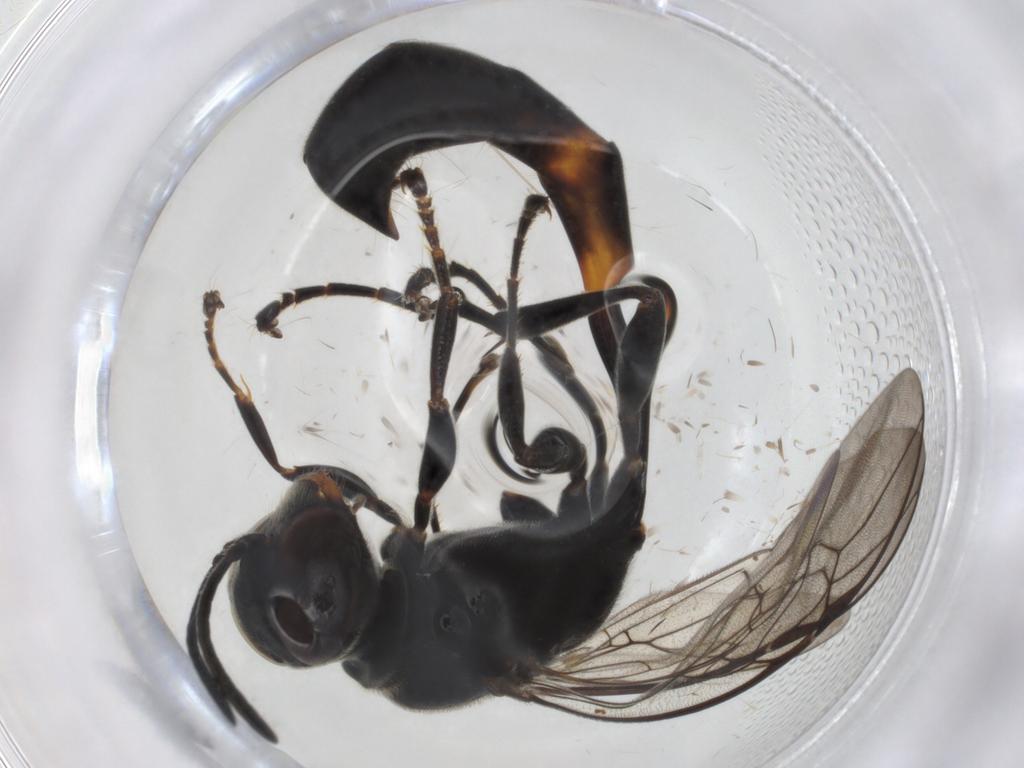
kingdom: Animalia
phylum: Arthropoda
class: Insecta
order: Hymenoptera
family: Crabronidae
